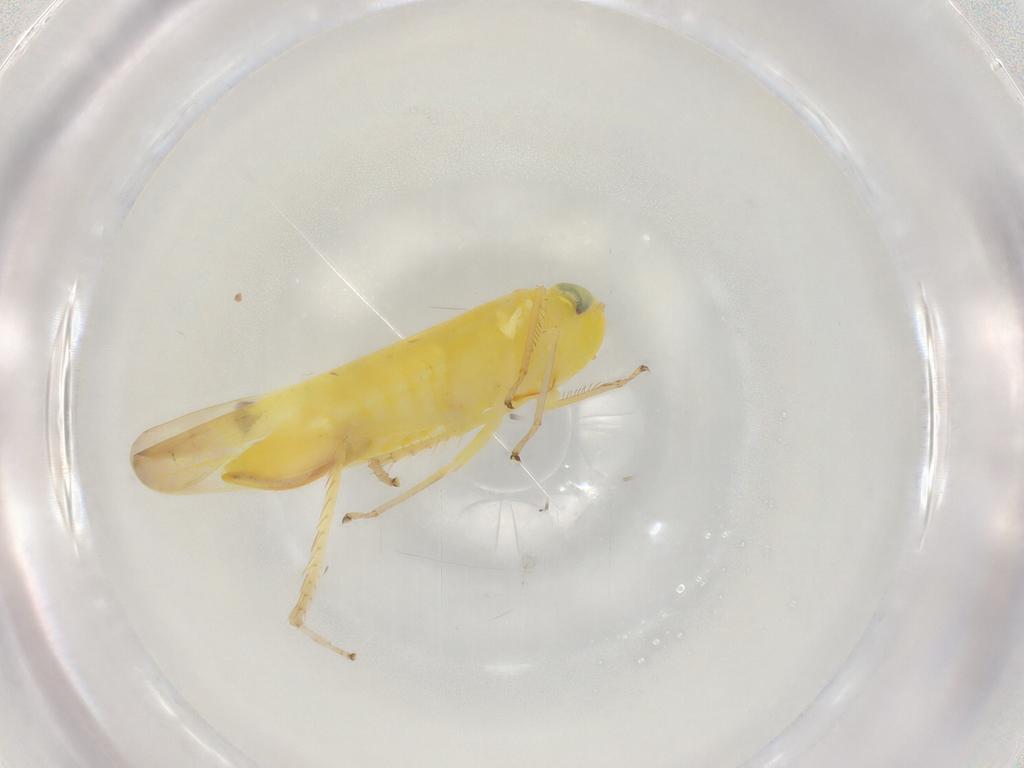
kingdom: Animalia
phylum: Arthropoda
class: Insecta
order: Hemiptera
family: Cicadellidae
